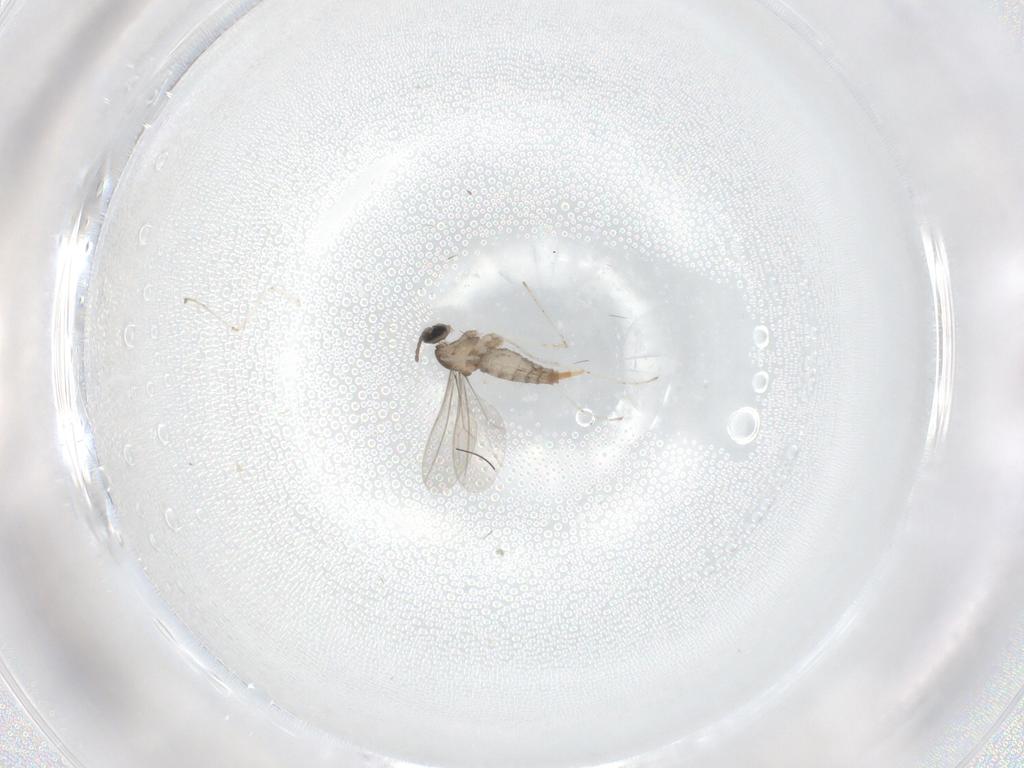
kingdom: Animalia
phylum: Arthropoda
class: Insecta
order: Diptera
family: Cecidomyiidae
